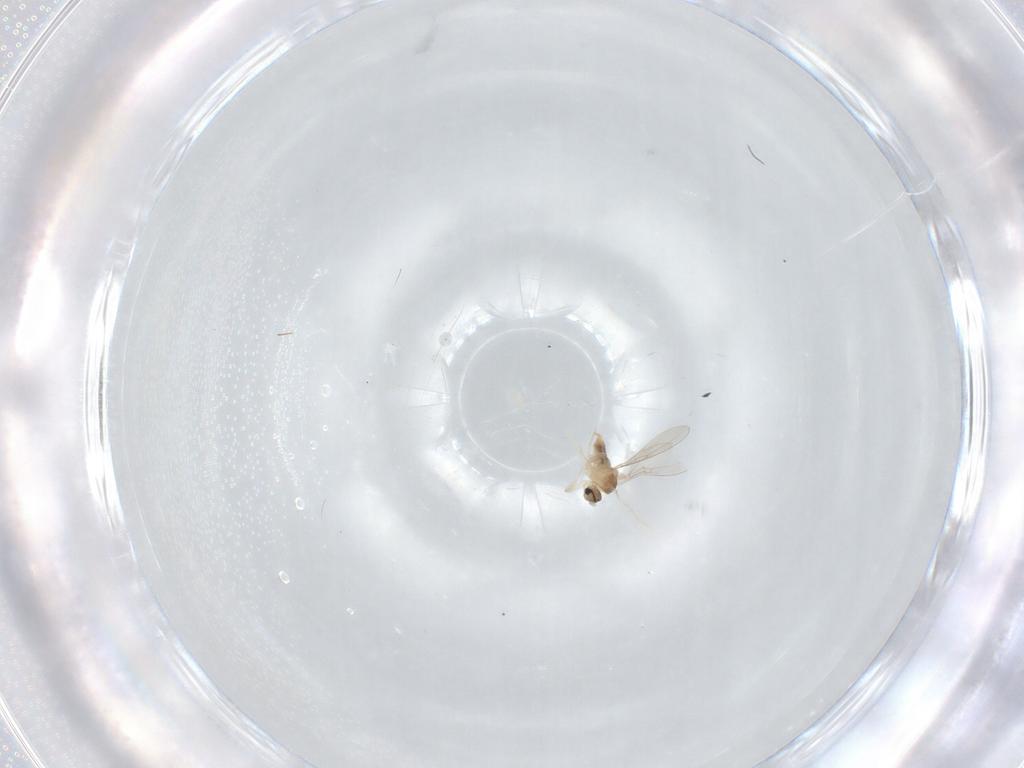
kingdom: Animalia
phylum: Arthropoda
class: Insecta
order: Diptera
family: Cecidomyiidae
